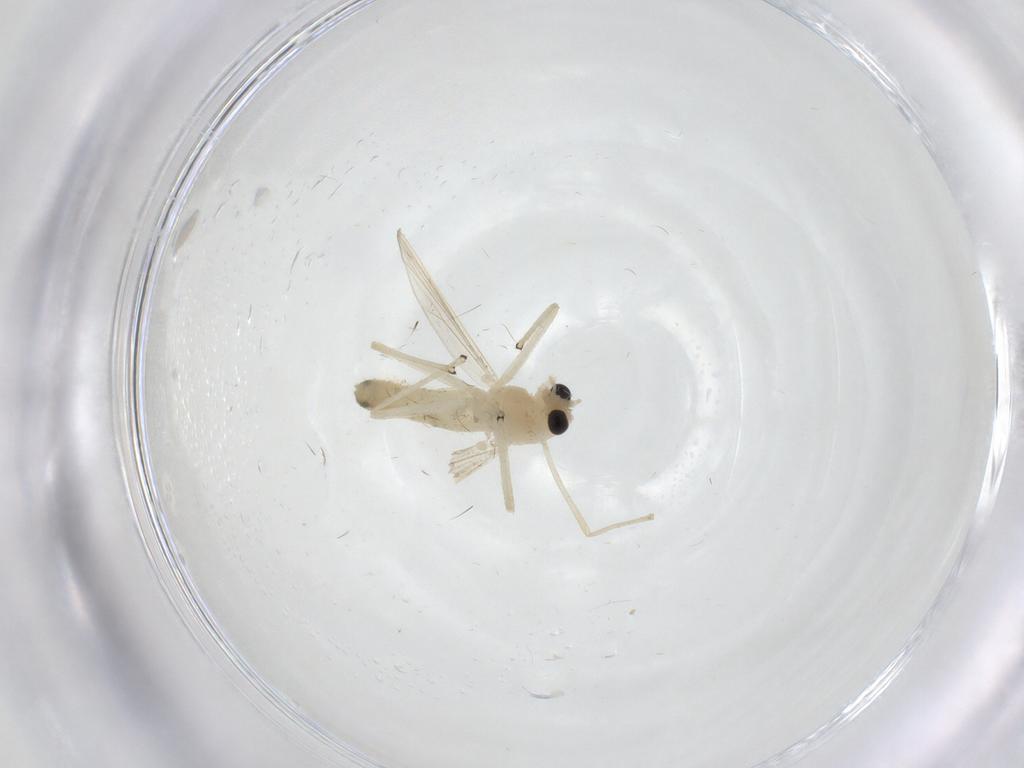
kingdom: Animalia
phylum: Arthropoda
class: Insecta
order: Diptera
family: Chironomidae
